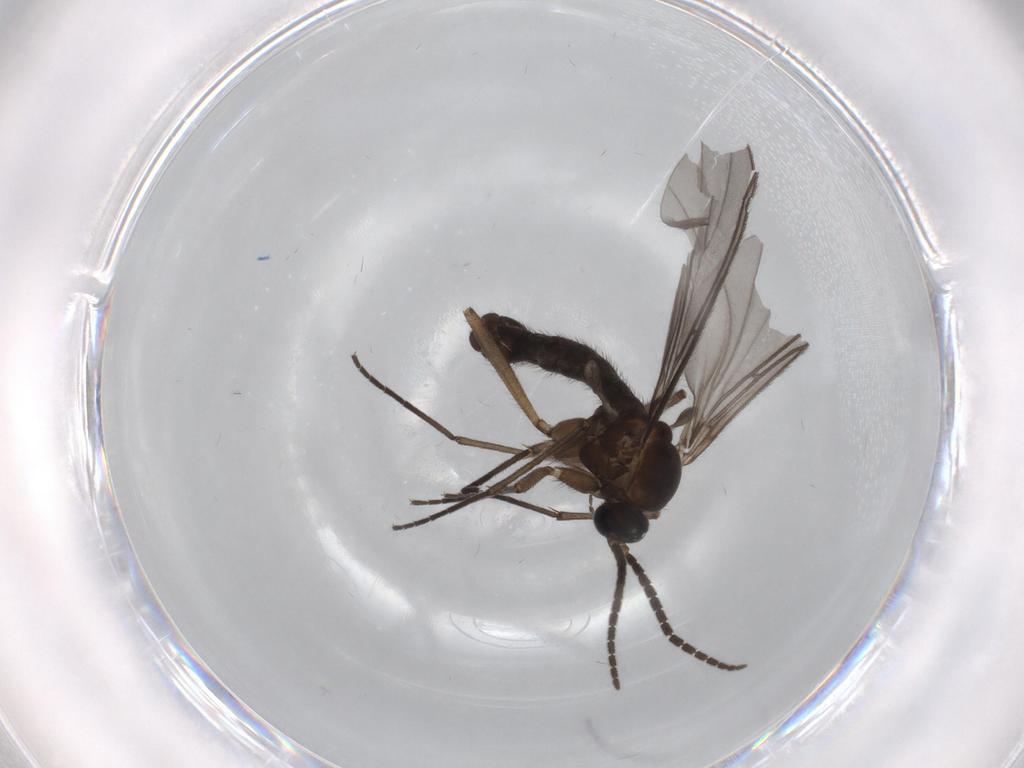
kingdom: Animalia
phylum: Arthropoda
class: Insecta
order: Diptera
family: Sciaridae
